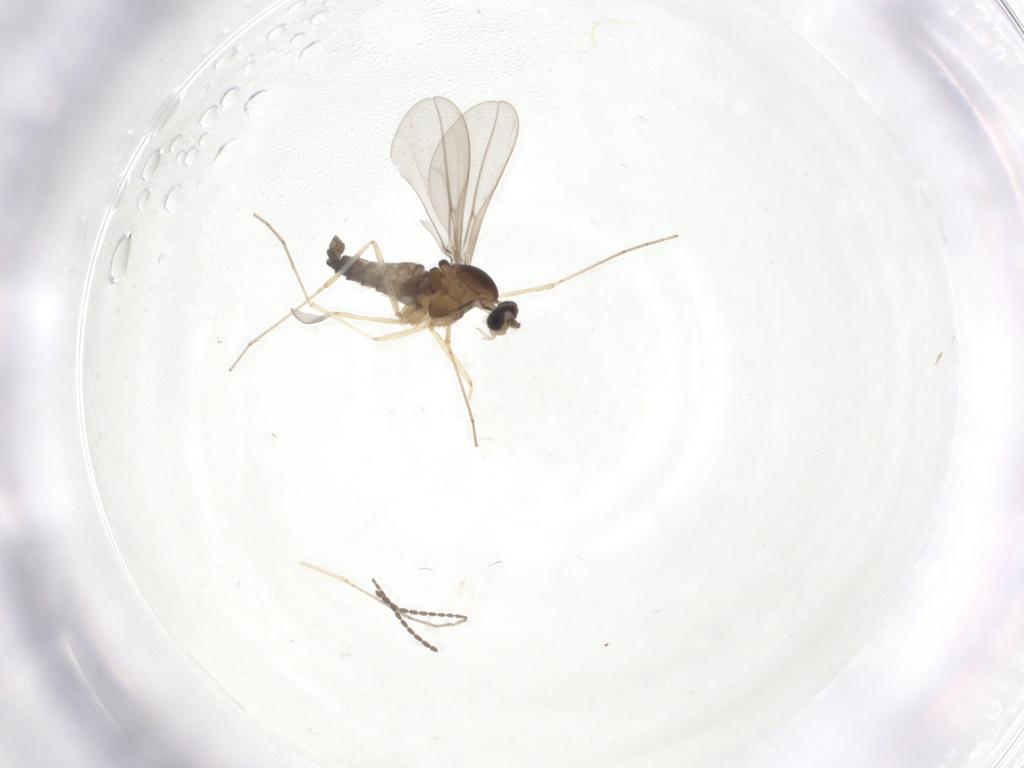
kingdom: Animalia
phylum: Arthropoda
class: Insecta
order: Diptera
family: Cecidomyiidae
